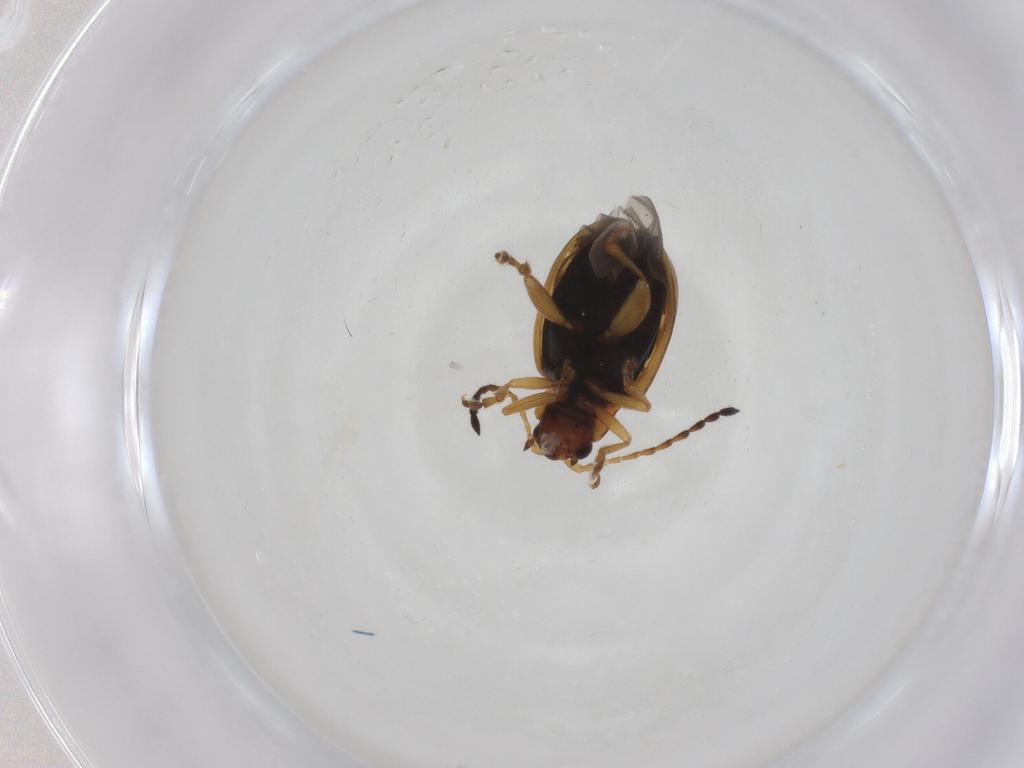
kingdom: Animalia
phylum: Arthropoda
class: Insecta
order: Coleoptera
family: Chrysomelidae
